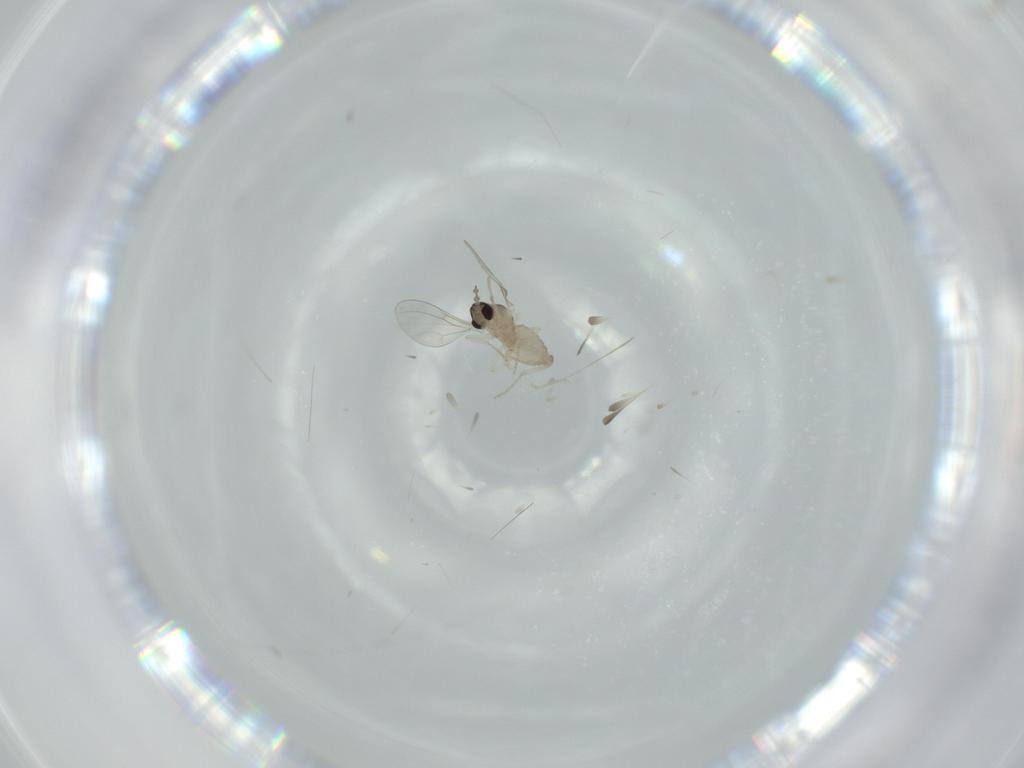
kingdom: Animalia
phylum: Arthropoda
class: Insecta
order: Diptera
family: Cecidomyiidae
